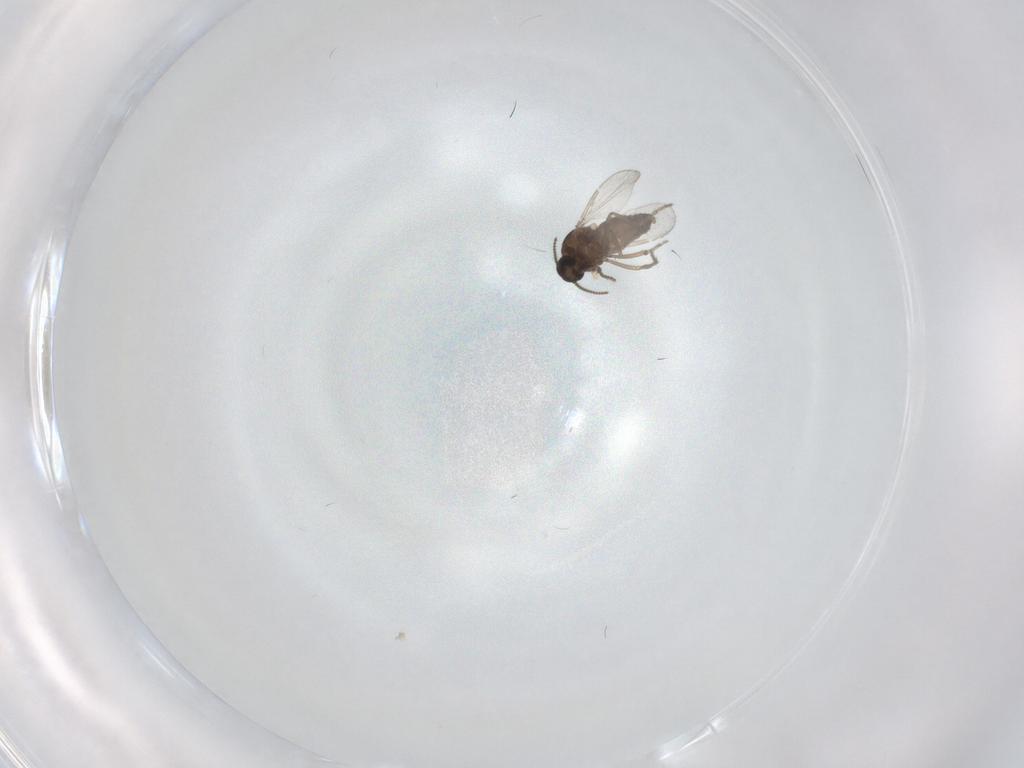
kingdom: Animalia
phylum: Arthropoda
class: Insecta
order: Diptera
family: Ceratopogonidae
